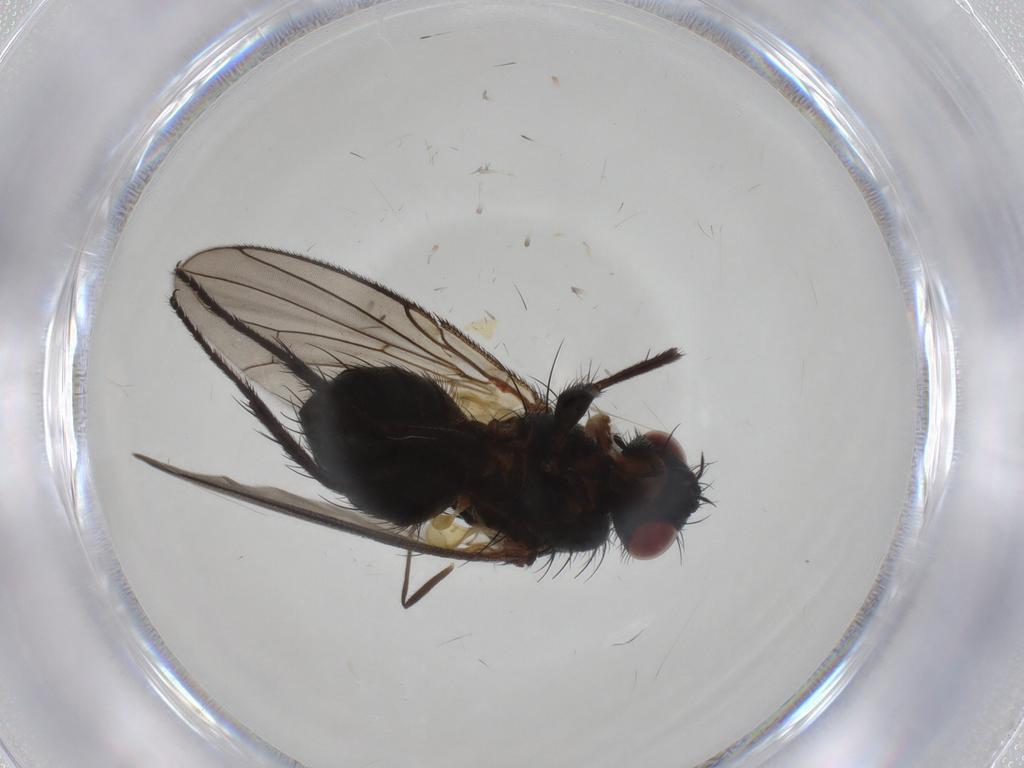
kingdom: Animalia
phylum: Arthropoda
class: Insecta
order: Diptera
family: Tachinidae
